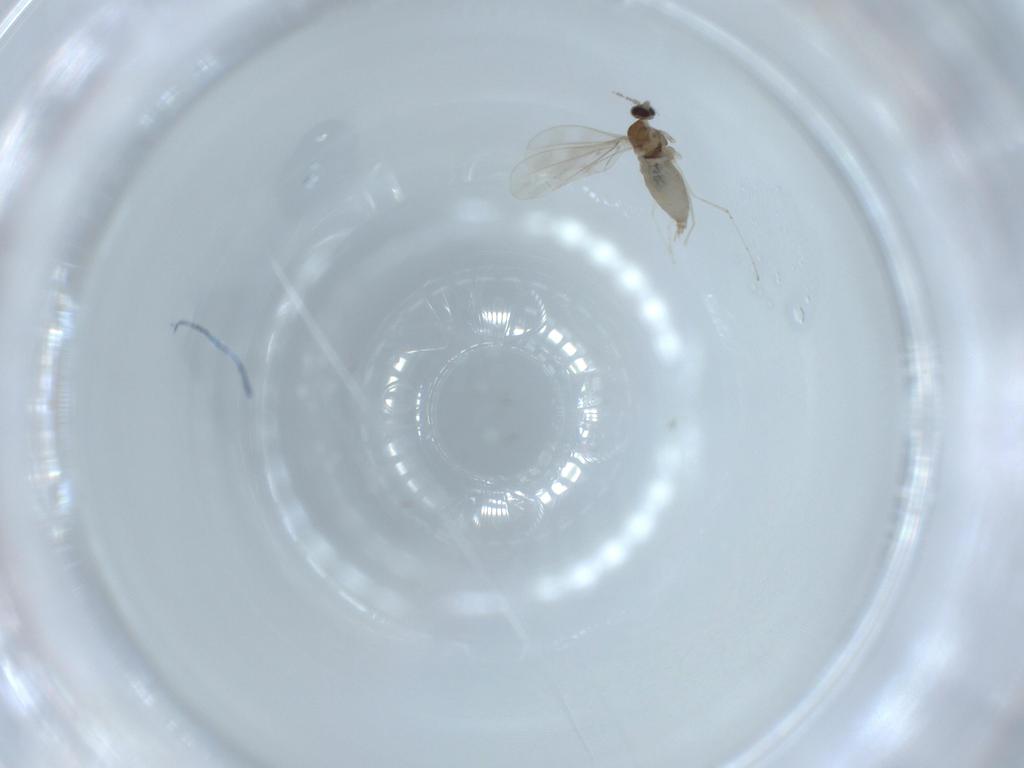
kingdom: Animalia
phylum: Arthropoda
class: Insecta
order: Diptera
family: Cecidomyiidae
